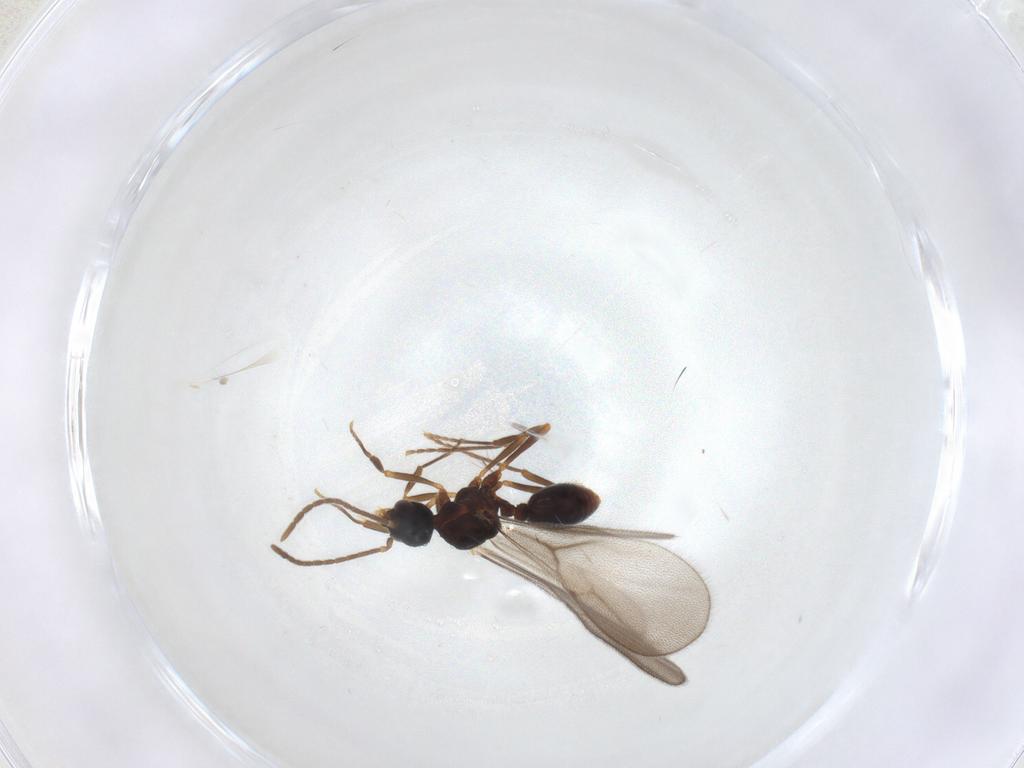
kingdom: Animalia
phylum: Arthropoda
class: Insecta
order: Hymenoptera
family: Formicidae
